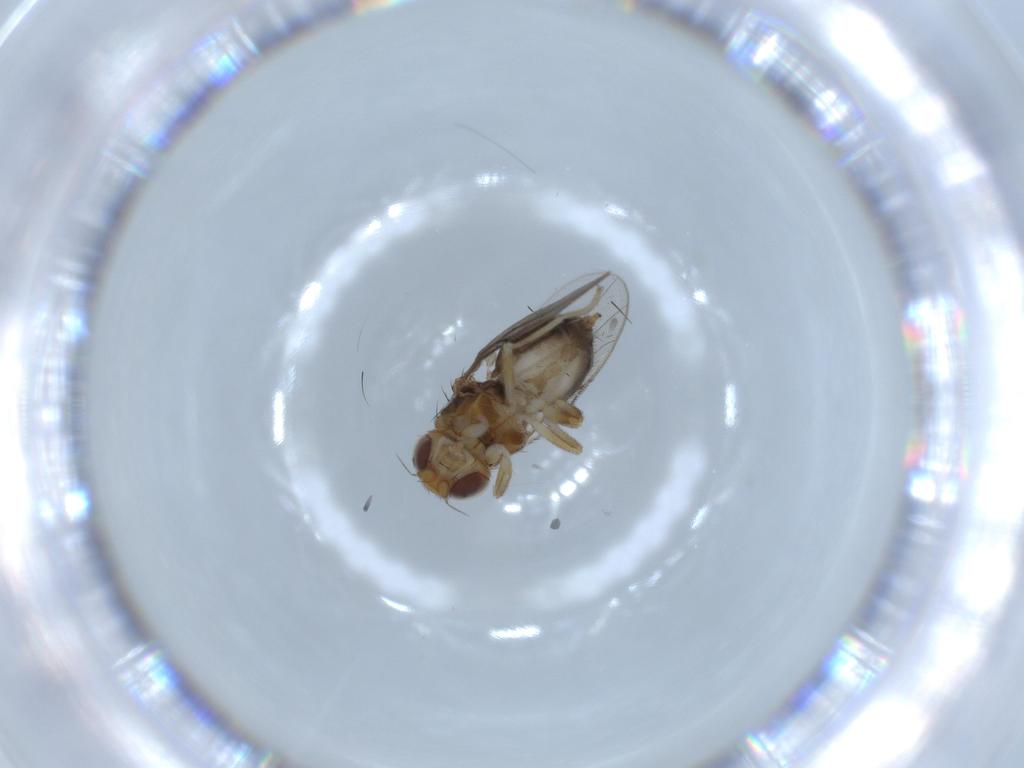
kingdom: Animalia
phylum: Arthropoda
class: Insecta
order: Diptera
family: Chloropidae
